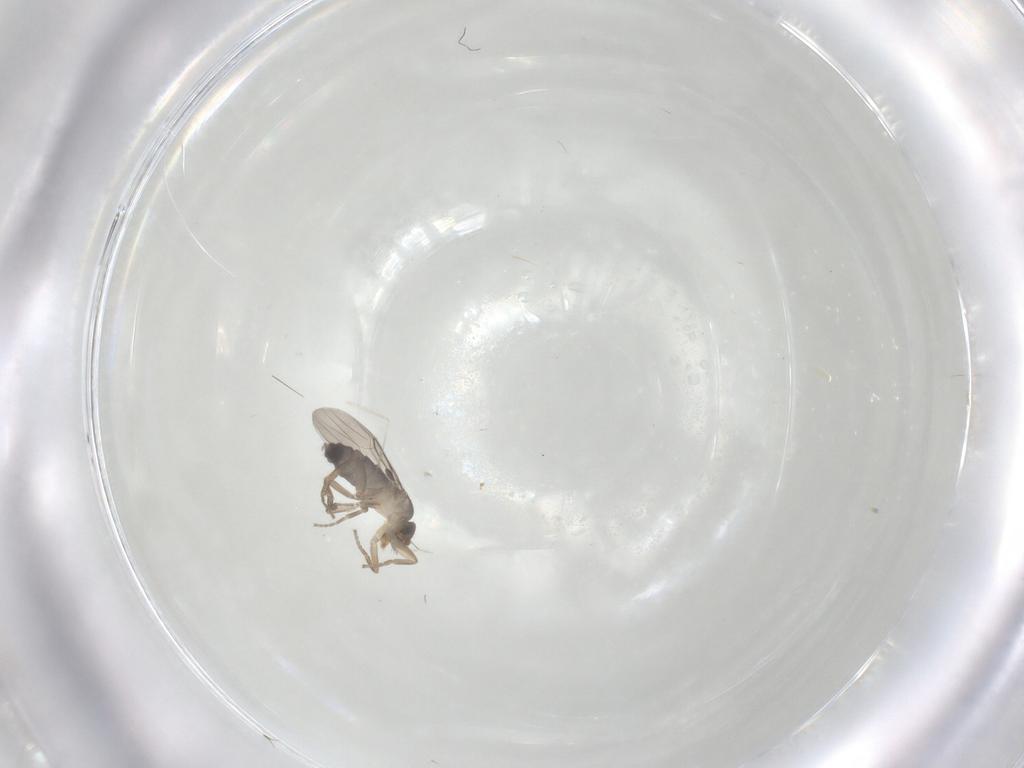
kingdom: Animalia
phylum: Arthropoda
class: Insecta
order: Diptera
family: Cecidomyiidae
